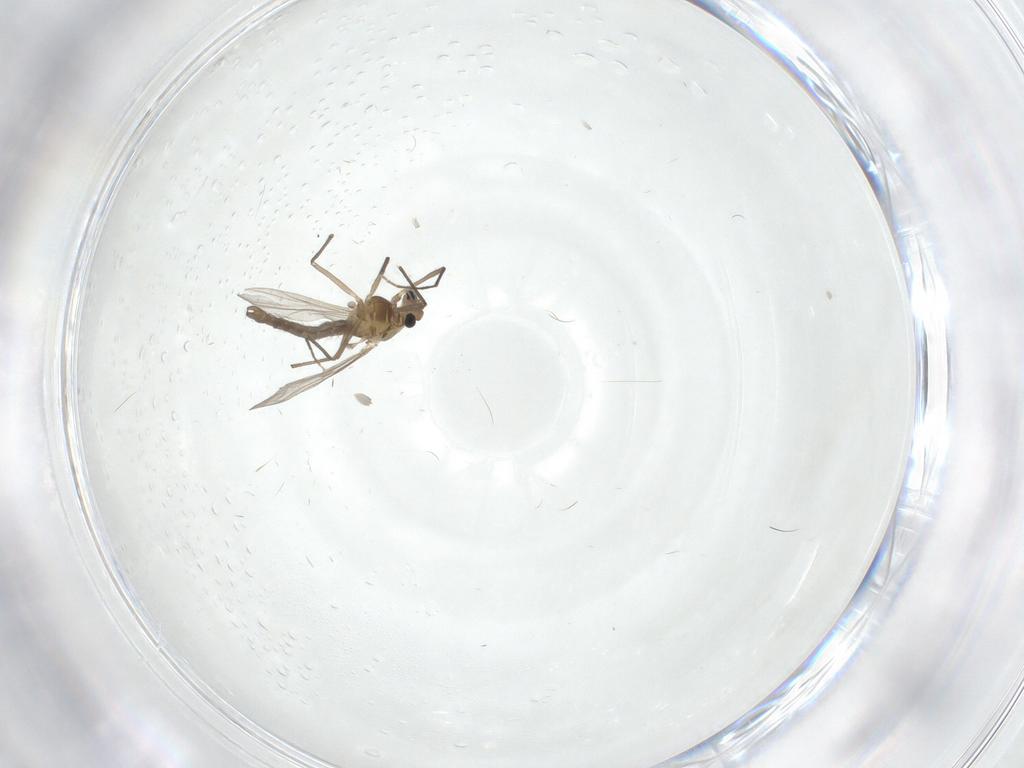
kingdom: Animalia
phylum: Arthropoda
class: Insecta
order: Diptera
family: Chironomidae
